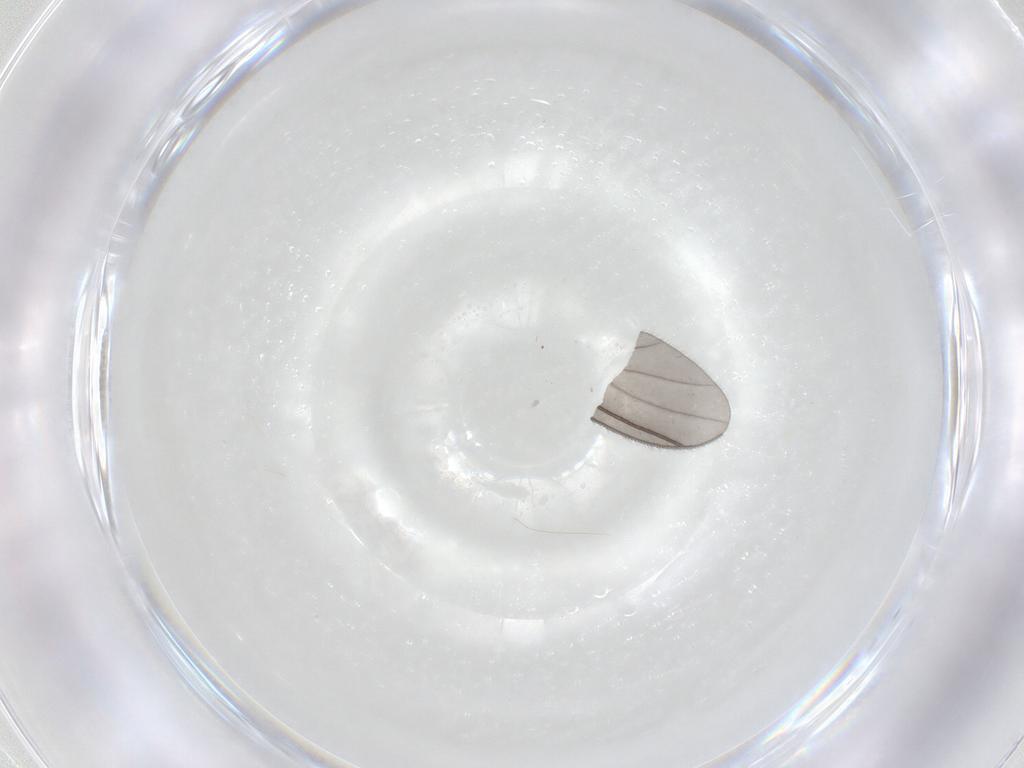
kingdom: Animalia
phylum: Arthropoda
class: Insecta
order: Diptera
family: Cecidomyiidae
